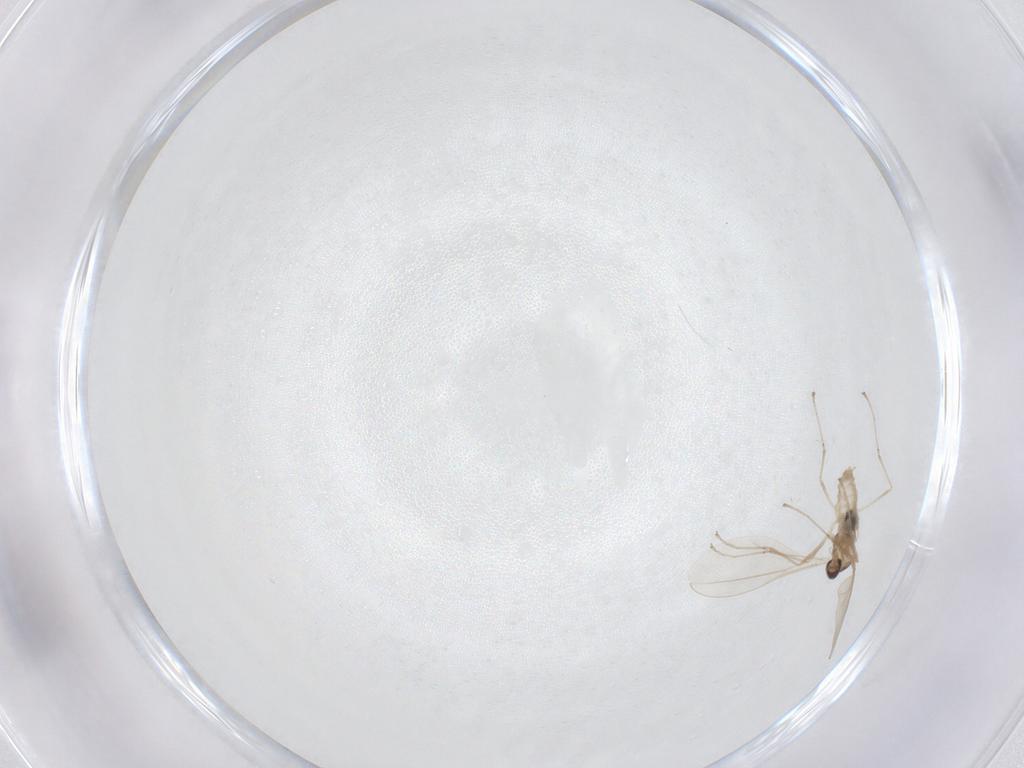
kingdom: Animalia
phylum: Arthropoda
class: Insecta
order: Diptera
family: Cecidomyiidae
